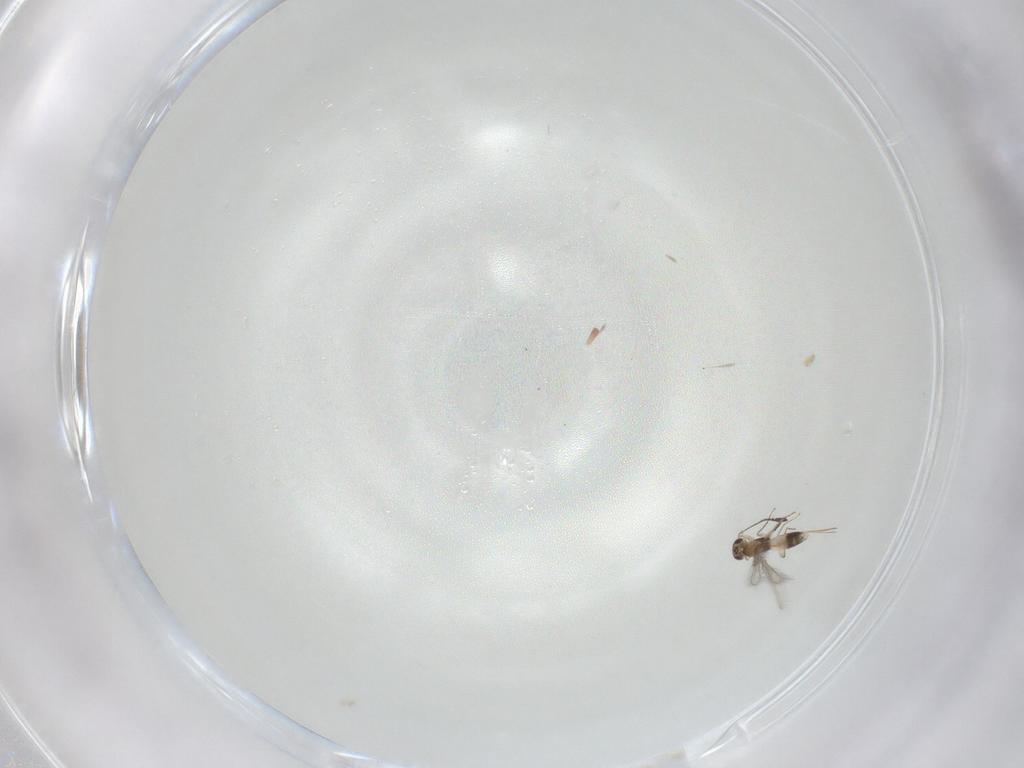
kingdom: Animalia
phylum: Arthropoda
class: Insecta
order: Hymenoptera
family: Mymaridae
